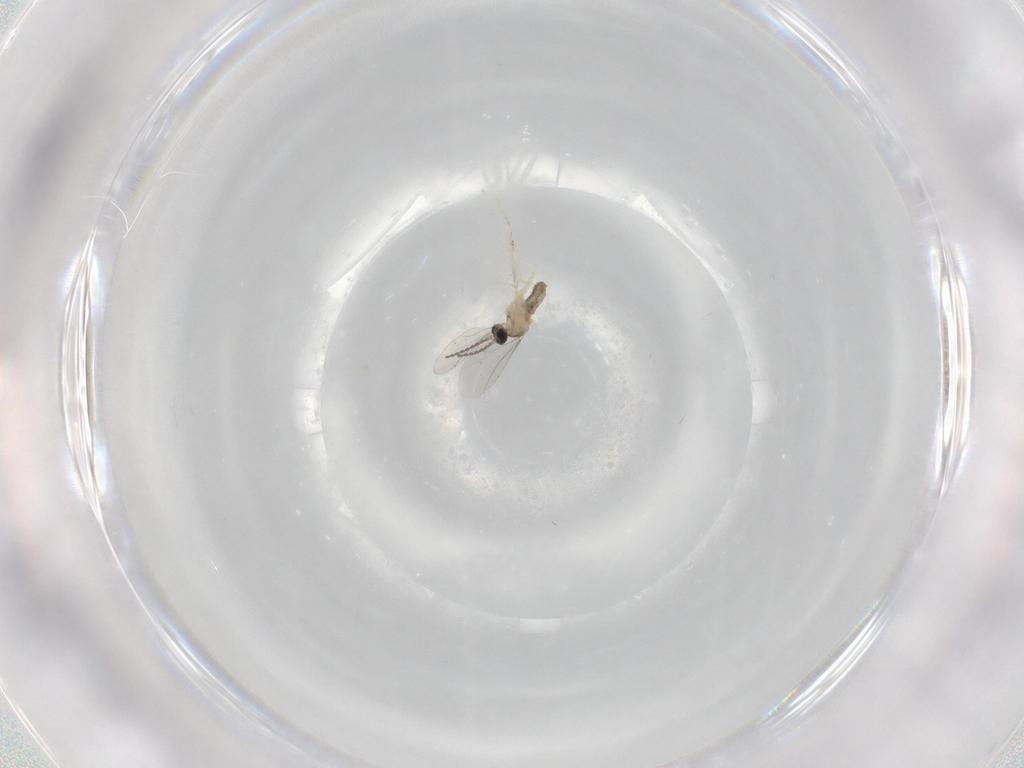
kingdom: Animalia
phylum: Arthropoda
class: Insecta
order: Diptera
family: Cecidomyiidae
